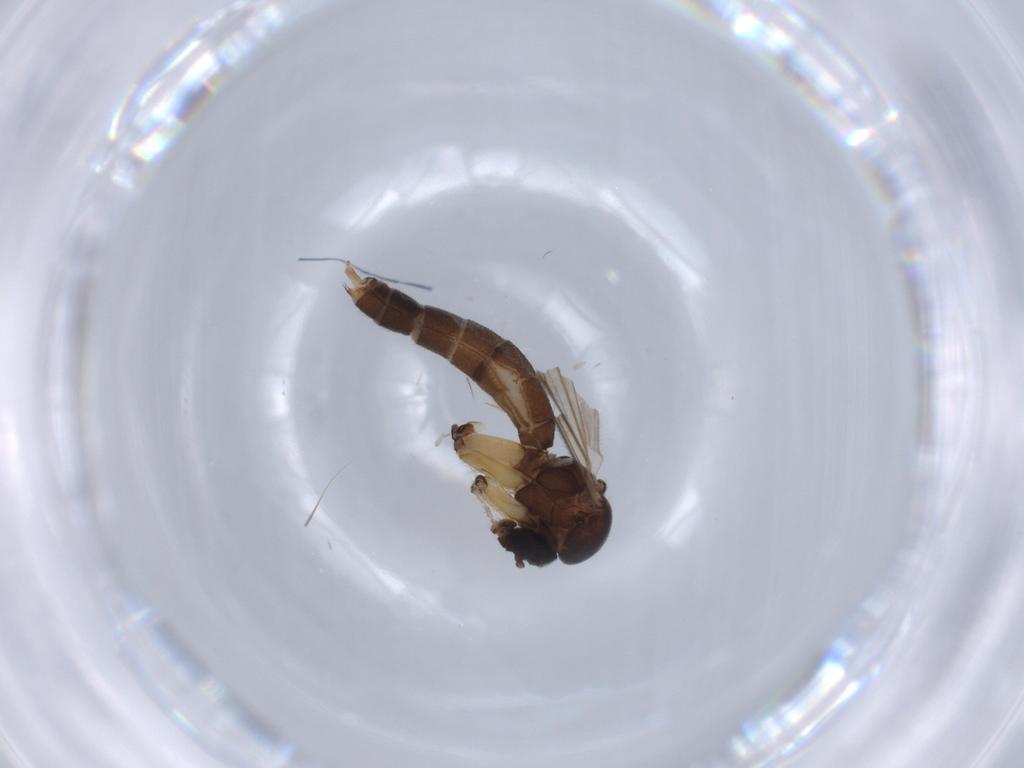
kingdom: Animalia
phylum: Arthropoda
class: Insecta
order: Diptera
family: Mycetophilidae
